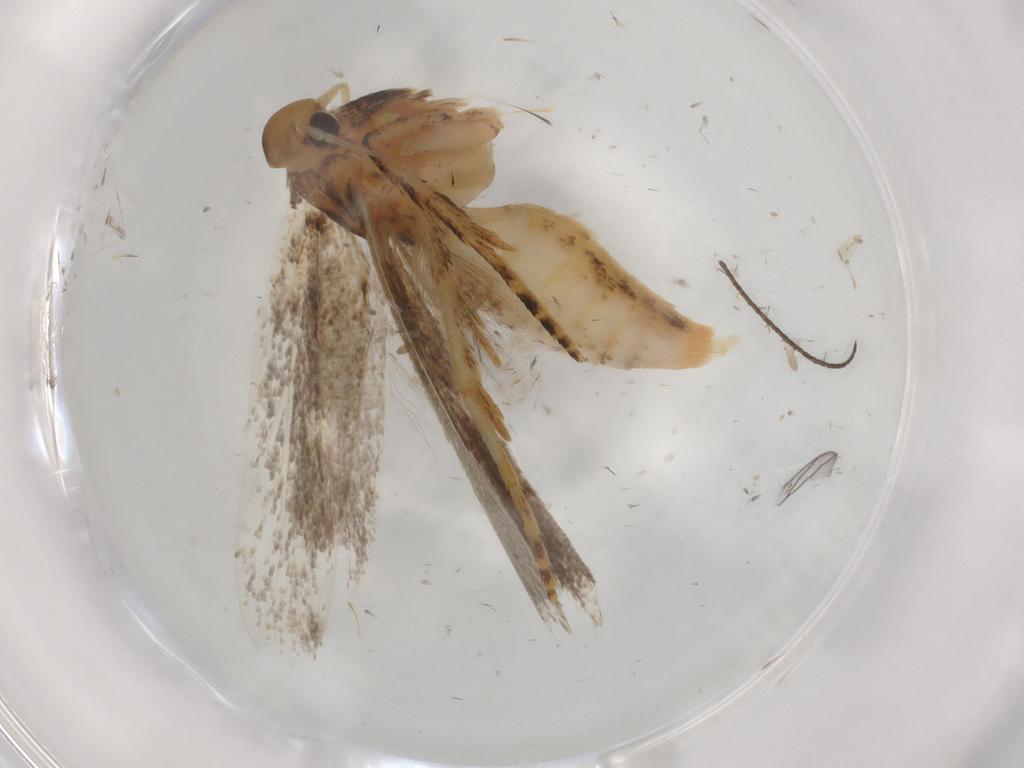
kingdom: Animalia
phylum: Arthropoda
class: Insecta
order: Lepidoptera
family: Gelechiidae
